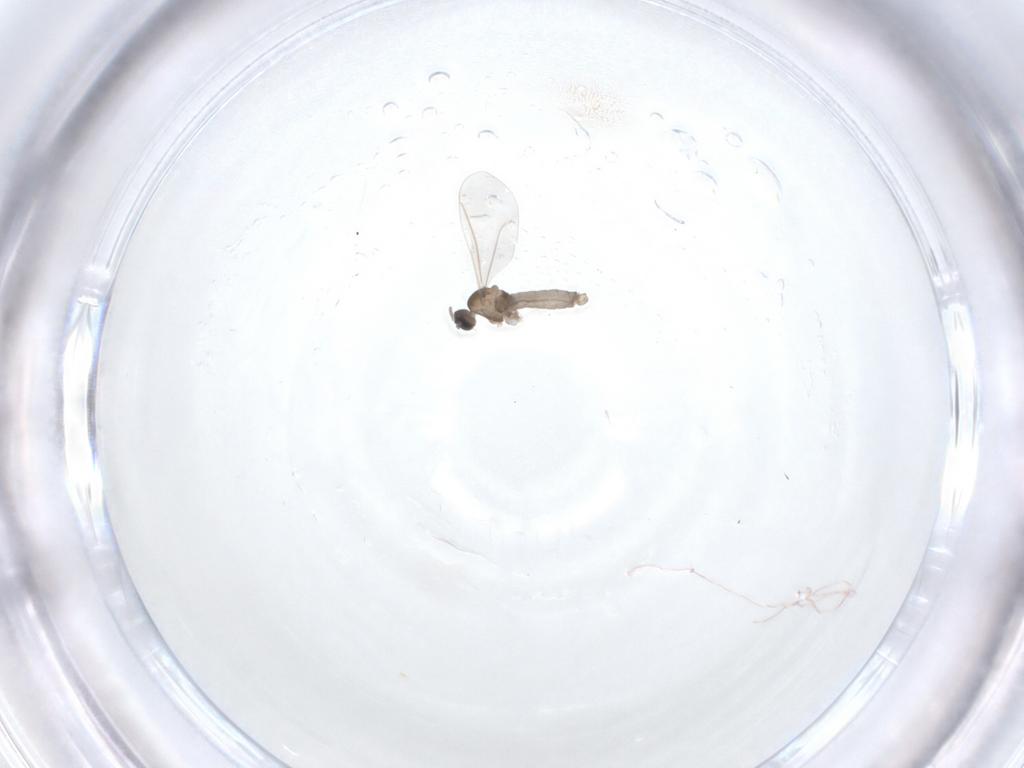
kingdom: Animalia
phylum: Arthropoda
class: Insecta
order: Diptera
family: Cecidomyiidae
